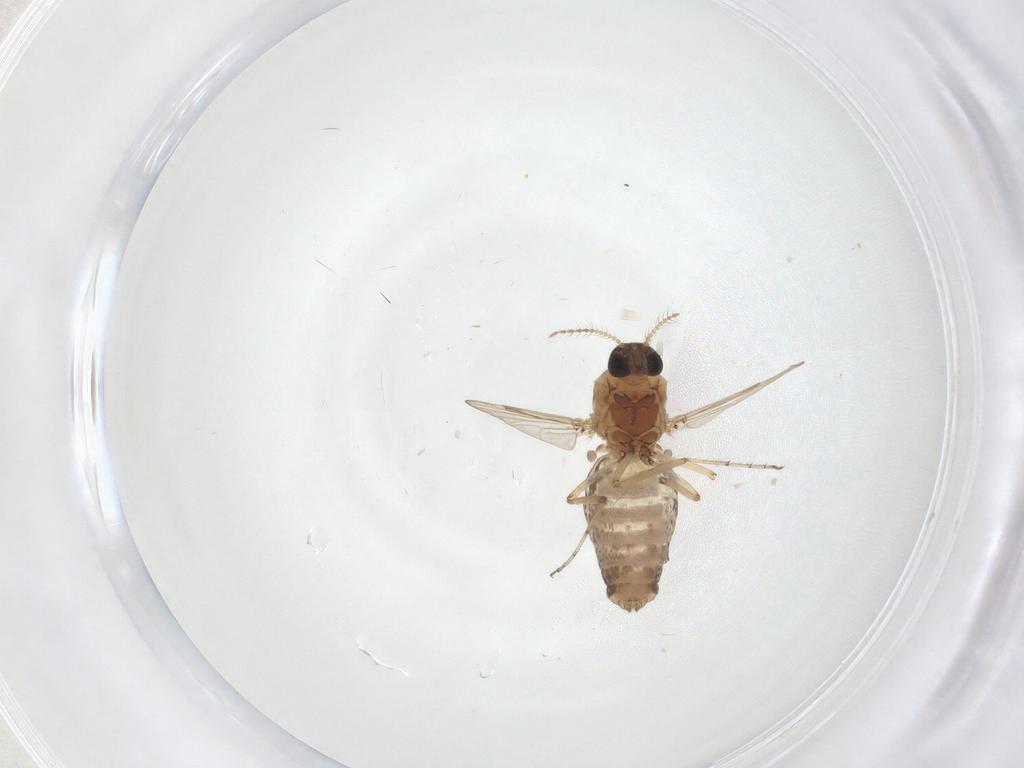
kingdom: Animalia
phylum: Arthropoda
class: Insecta
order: Diptera
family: Ceratopogonidae
